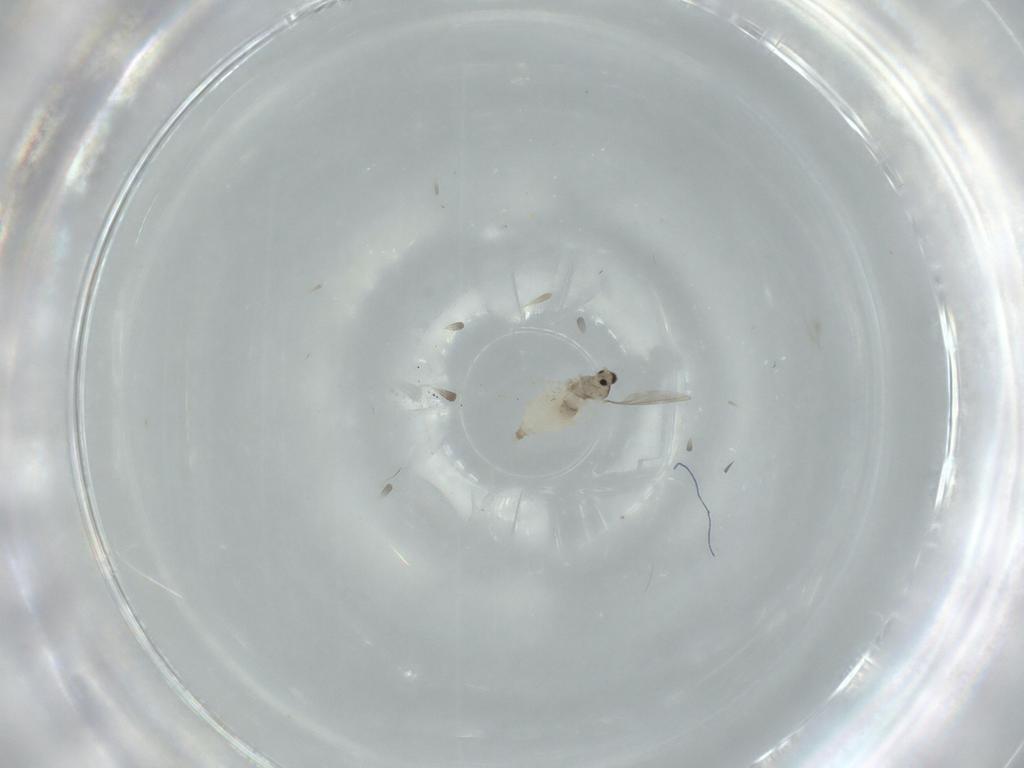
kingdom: Animalia
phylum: Arthropoda
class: Insecta
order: Diptera
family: Cecidomyiidae
